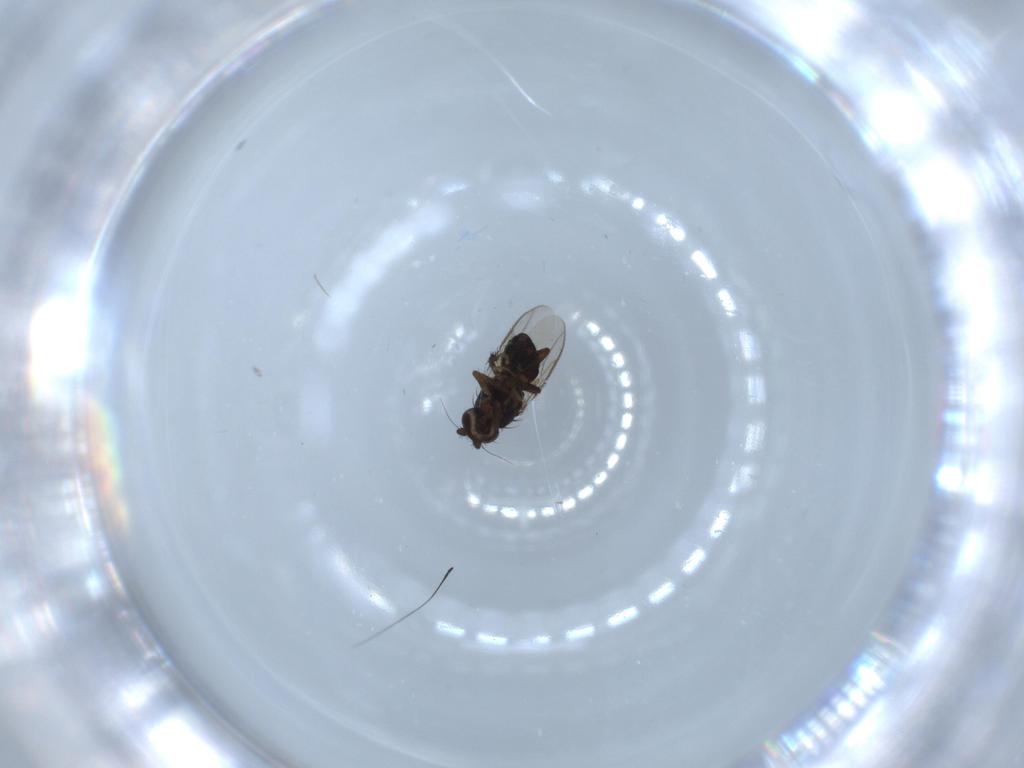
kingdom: Animalia
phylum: Arthropoda
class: Insecta
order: Diptera
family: Sphaeroceridae
